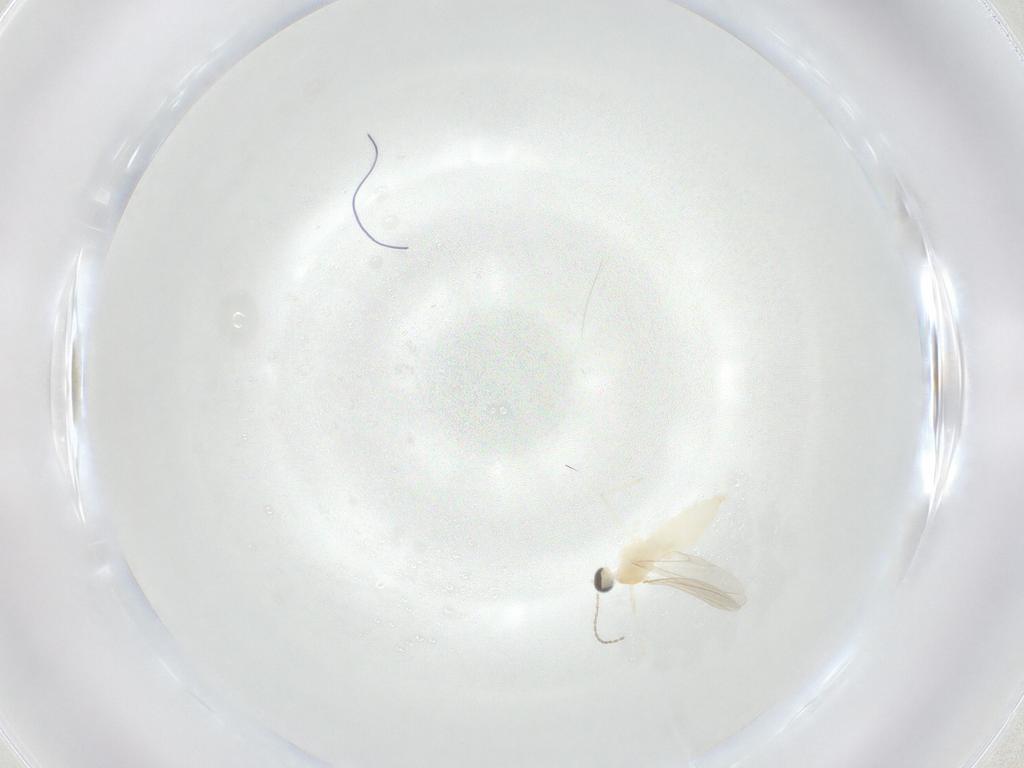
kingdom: Animalia
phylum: Arthropoda
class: Insecta
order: Diptera
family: Cecidomyiidae
